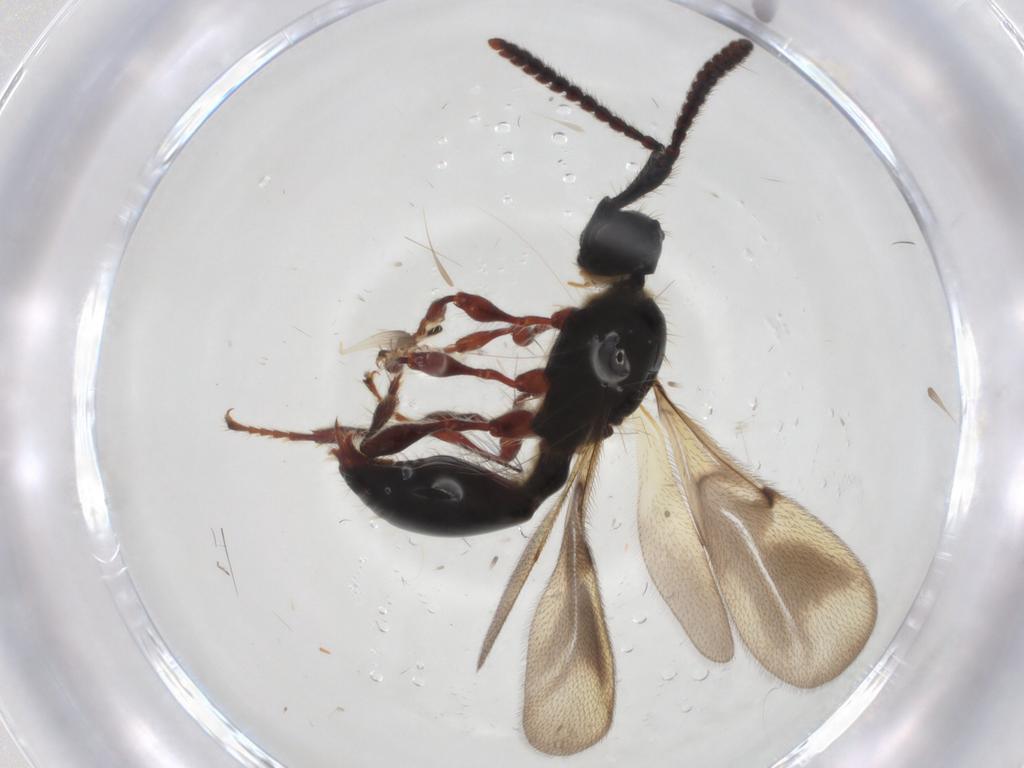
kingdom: Animalia
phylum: Arthropoda
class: Insecta
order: Hymenoptera
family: Diapriidae
